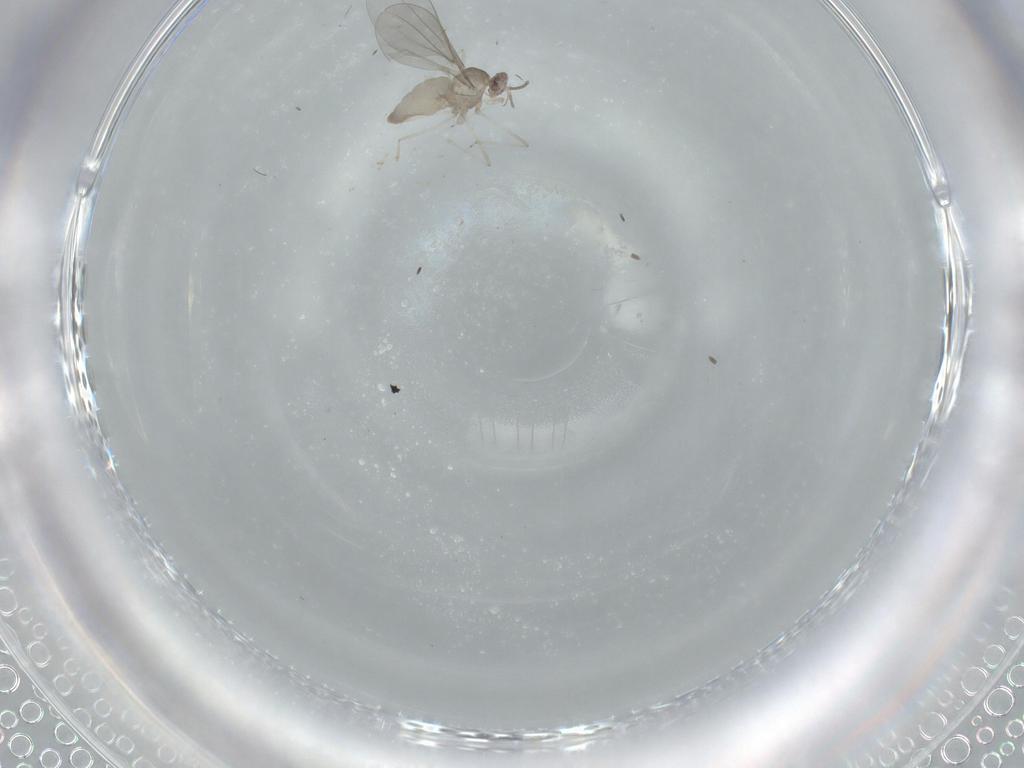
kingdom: Animalia
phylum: Arthropoda
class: Insecta
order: Diptera
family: Cecidomyiidae
